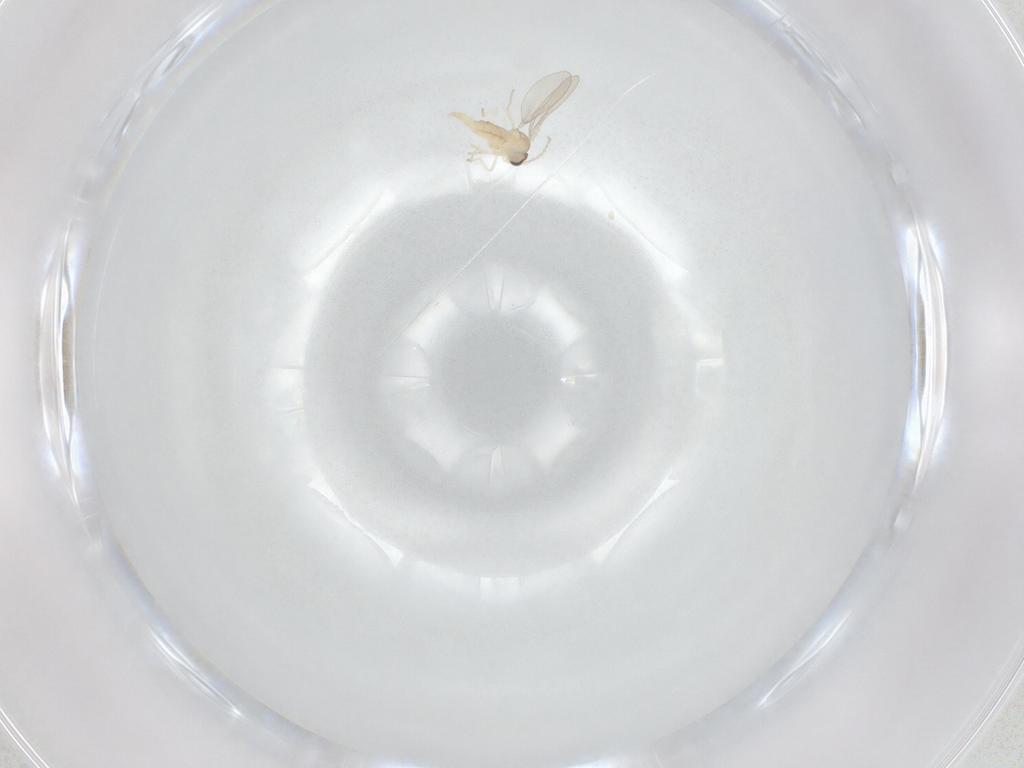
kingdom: Animalia
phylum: Arthropoda
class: Insecta
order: Diptera
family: Cecidomyiidae
